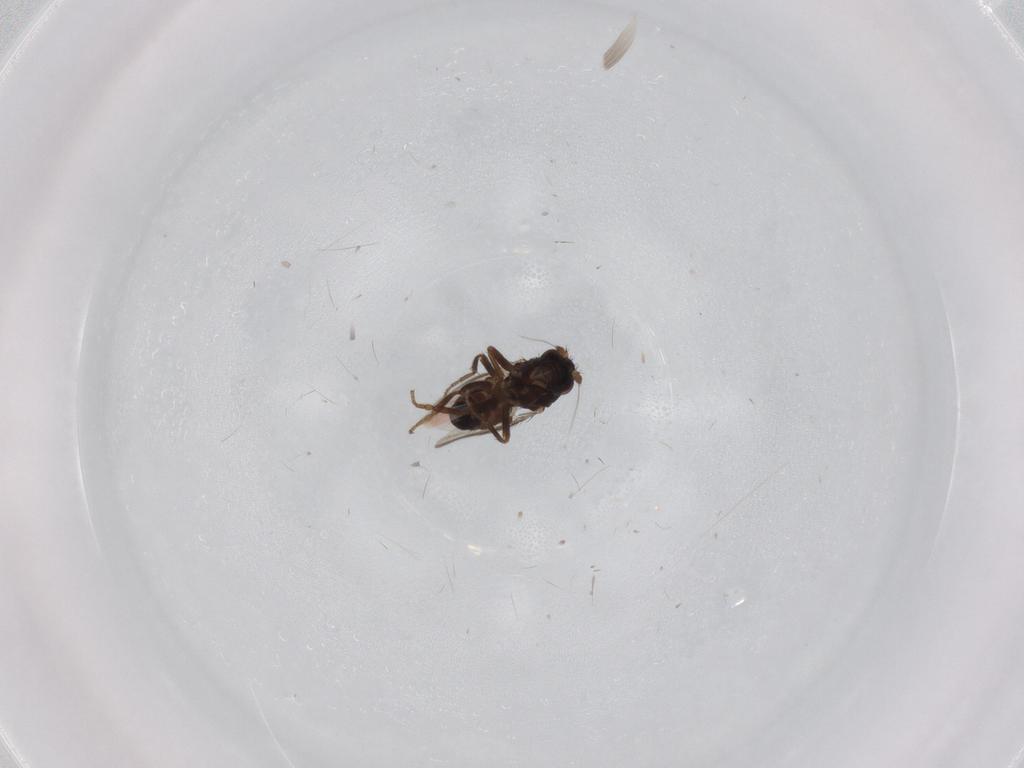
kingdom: Animalia
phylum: Arthropoda
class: Insecta
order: Diptera
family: Sphaeroceridae
